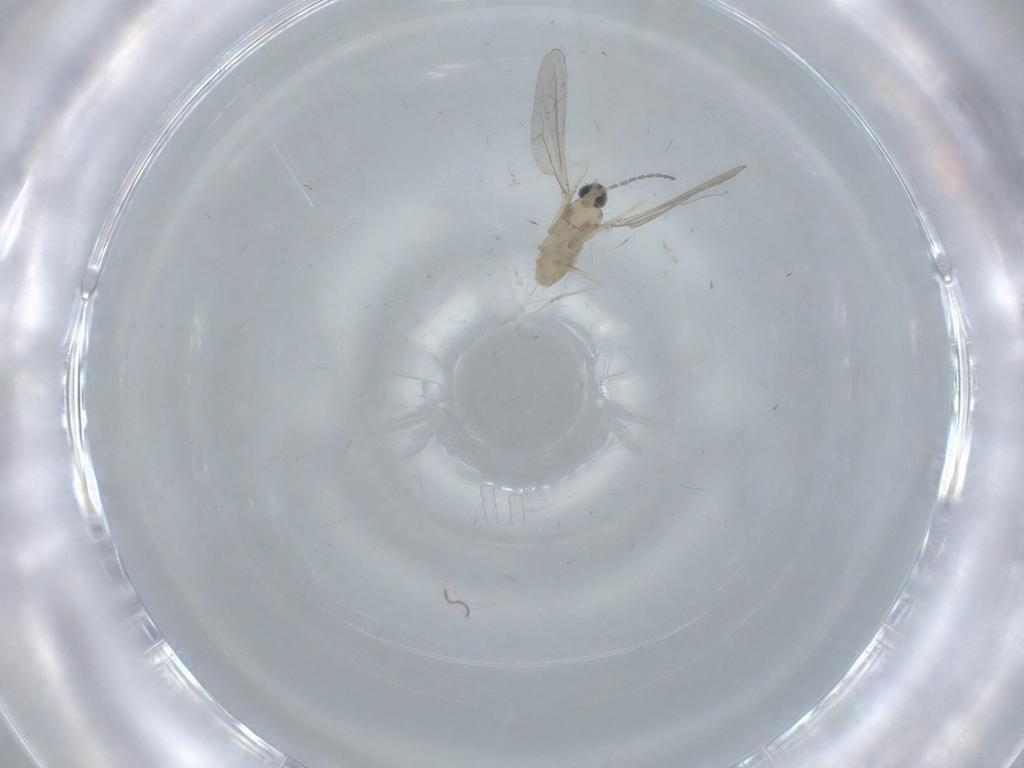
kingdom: Animalia
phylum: Arthropoda
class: Insecta
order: Diptera
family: Cecidomyiidae
